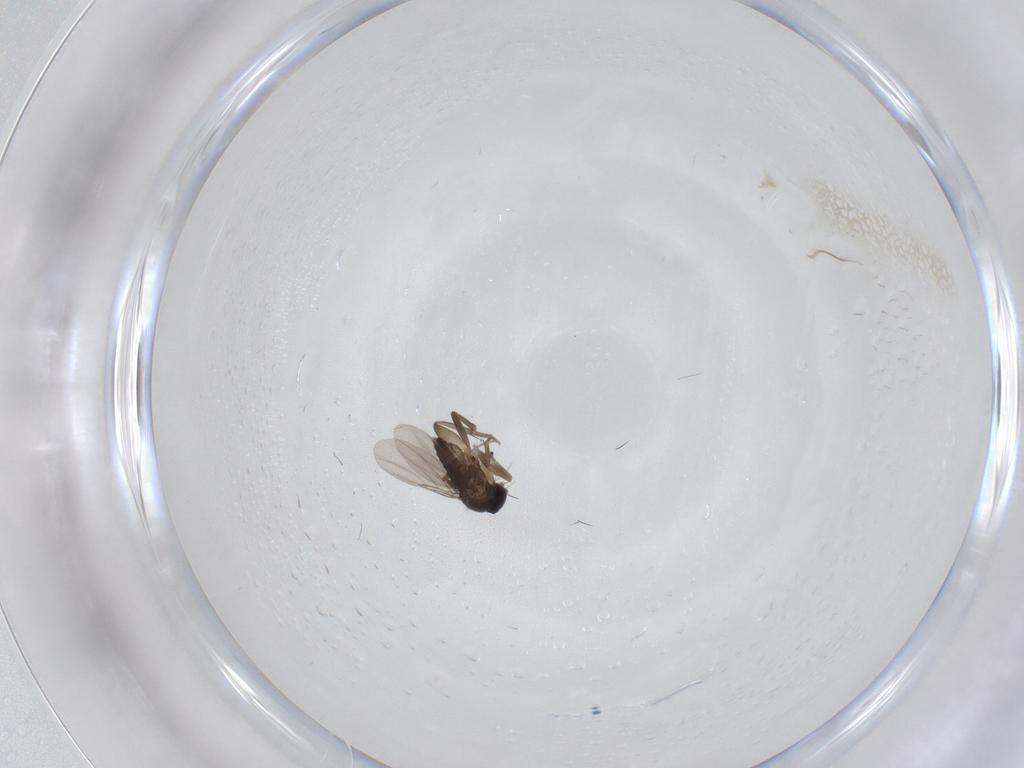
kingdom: Animalia
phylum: Arthropoda
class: Insecta
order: Diptera
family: Phoridae
